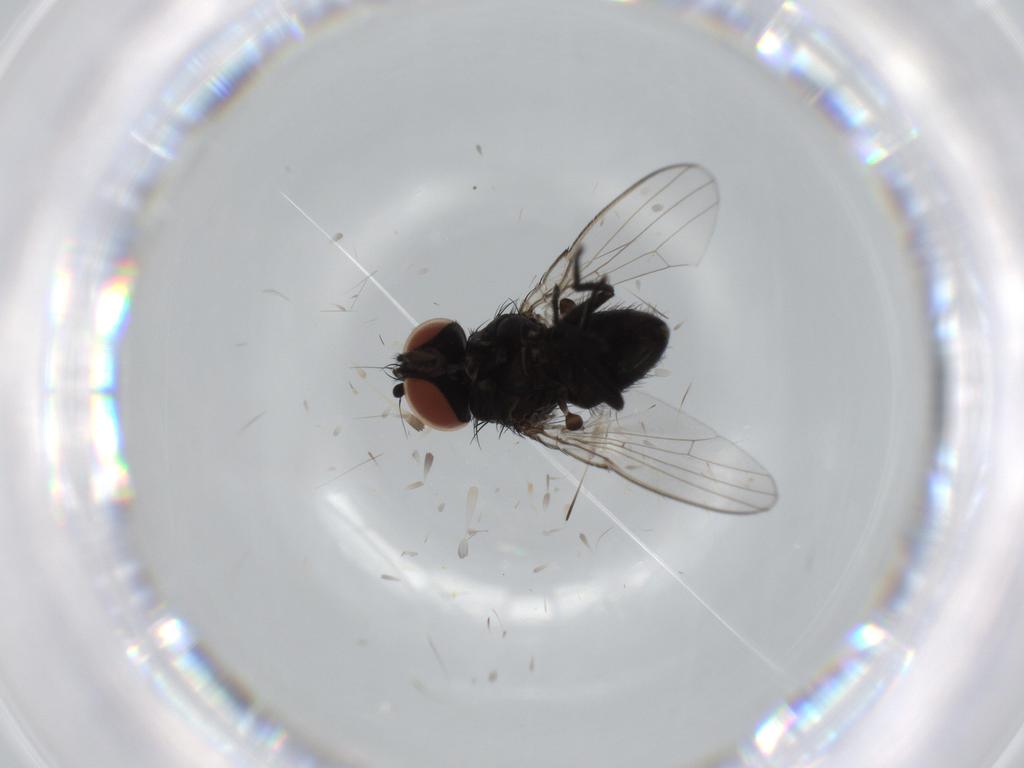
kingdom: Animalia
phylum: Arthropoda
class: Insecta
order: Diptera
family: Milichiidae
